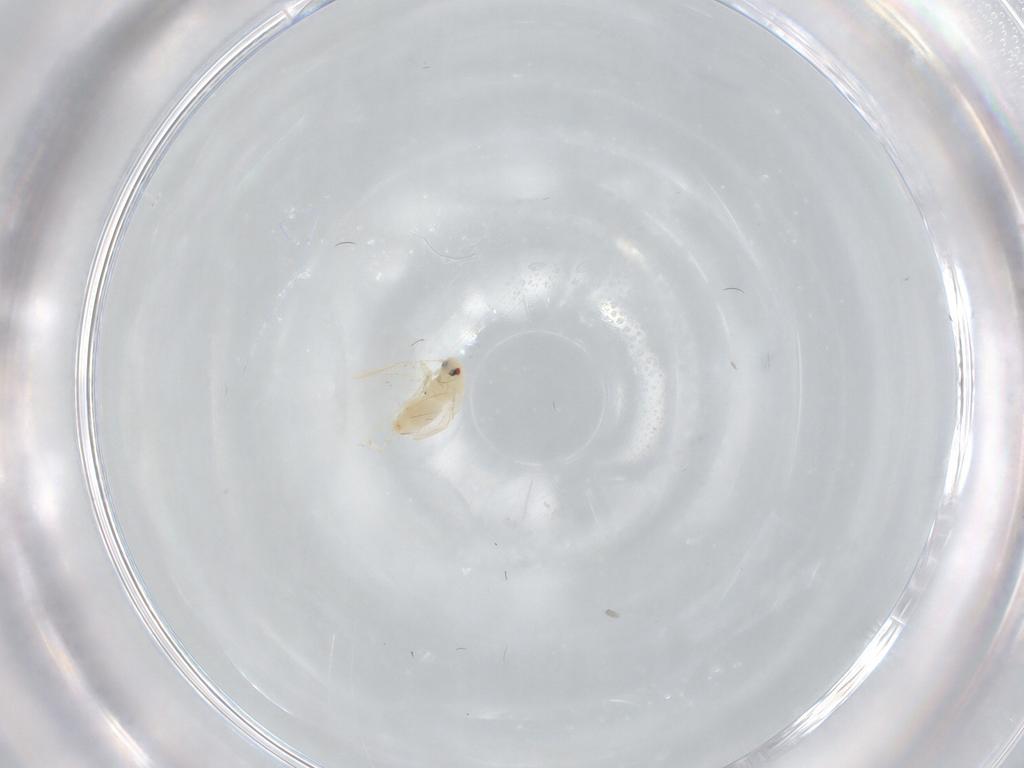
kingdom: Animalia
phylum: Arthropoda
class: Insecta
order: Hemiptera
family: Aleyrodidae
